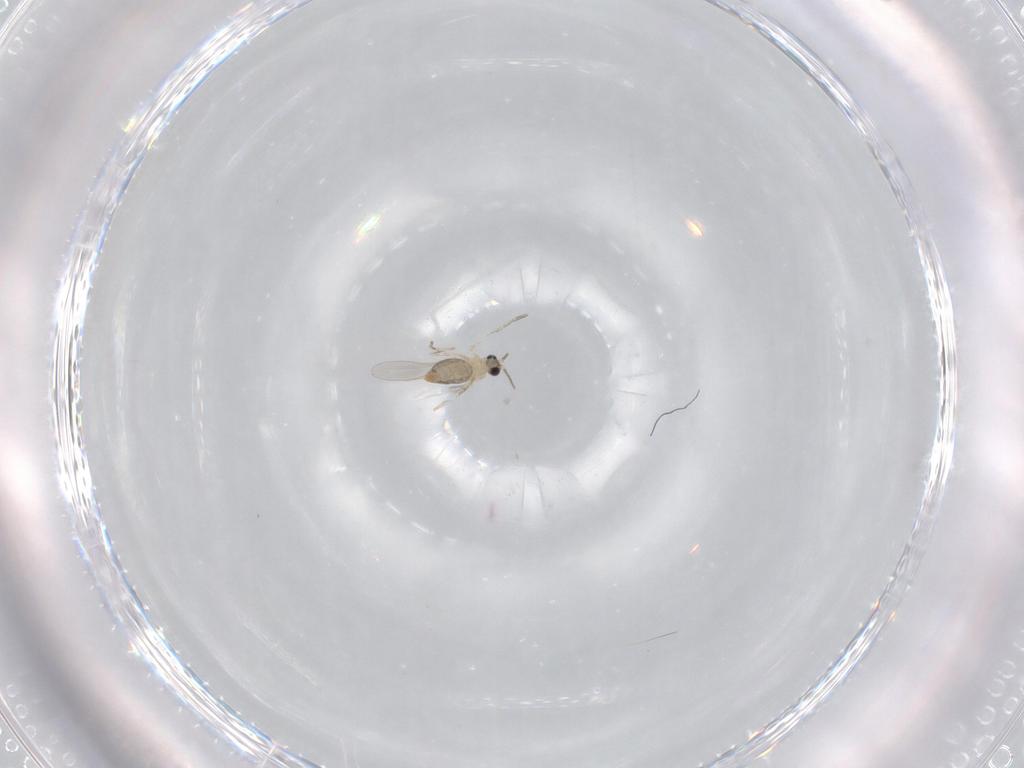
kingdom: Animalia
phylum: Arthropoda
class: Insecta
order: Diptera
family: Cecidomyiidae
